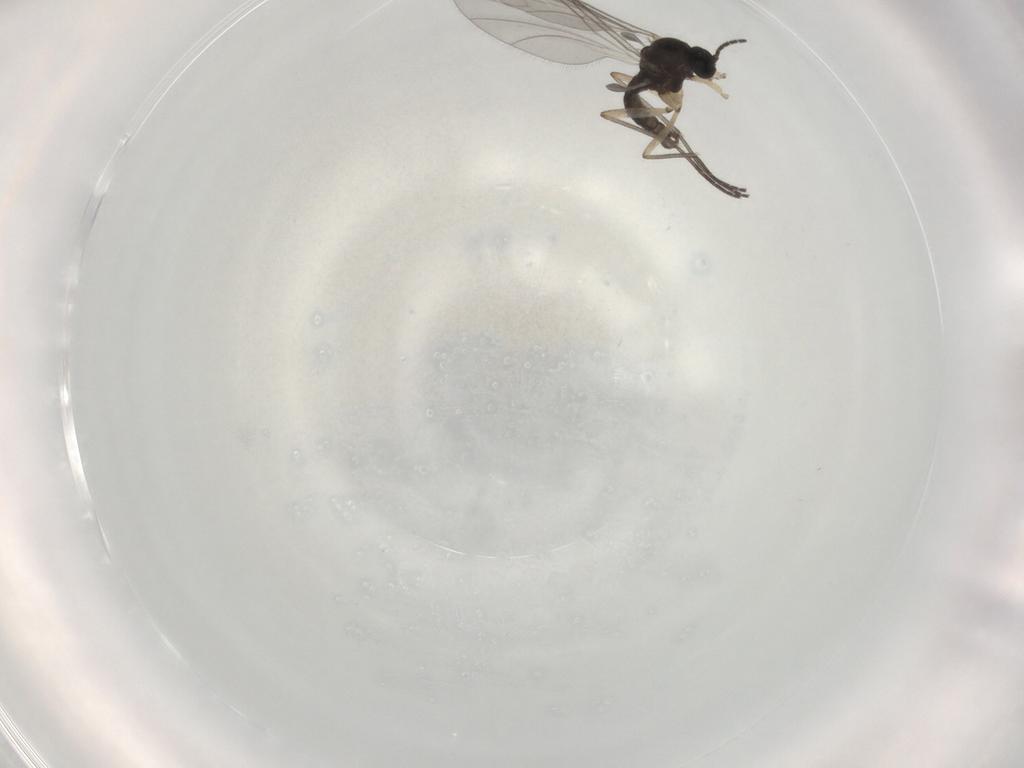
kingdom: Animalia
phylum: Arthropoda
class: Insecta
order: Diptera
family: Sciaridae
